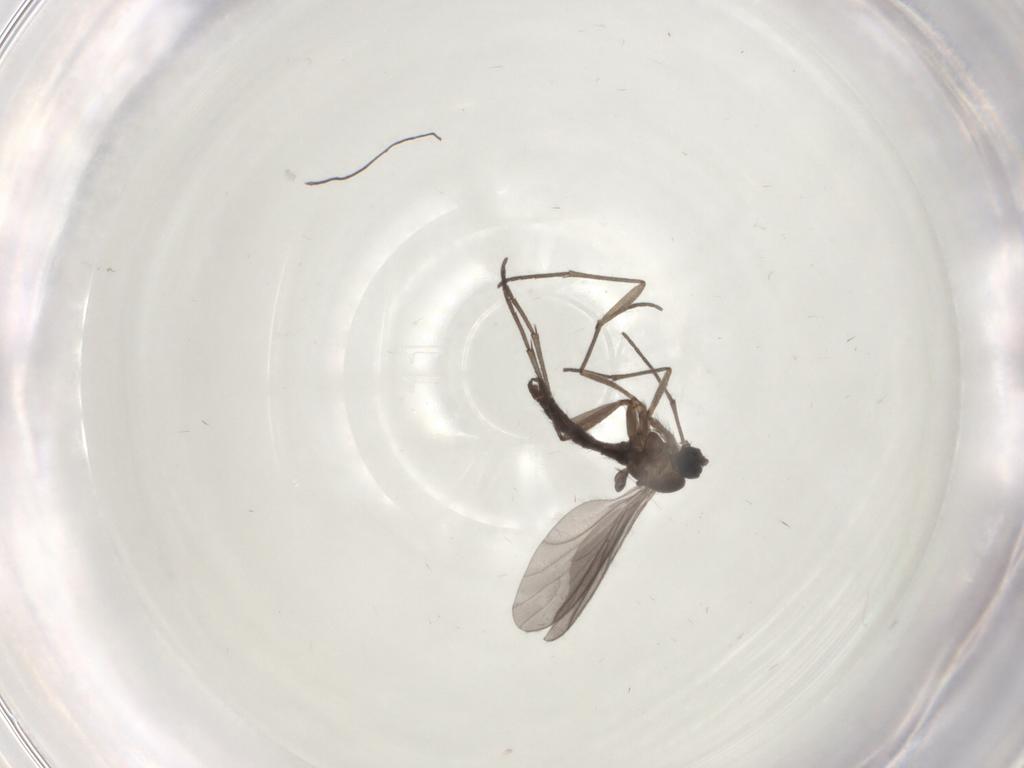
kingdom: Animalia
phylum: Arthropoda
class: Insecta
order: Diptera
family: Sciaridae
